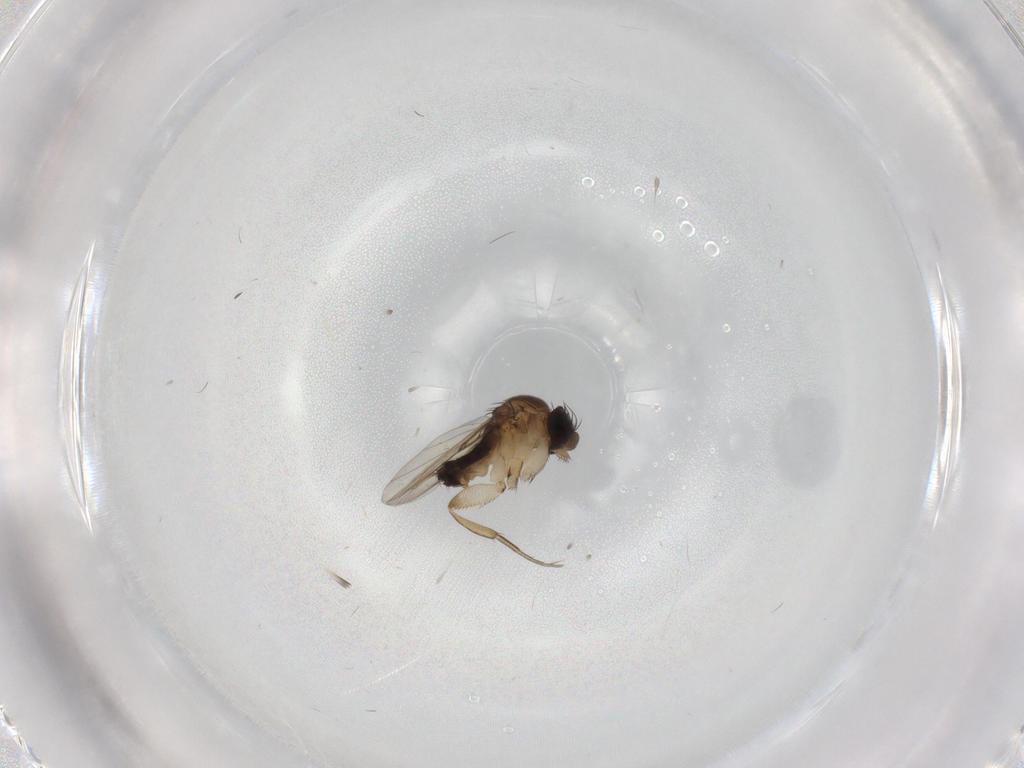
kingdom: Animalia
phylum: Arthropoda
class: Insecta
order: Diptera
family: Phoridae
